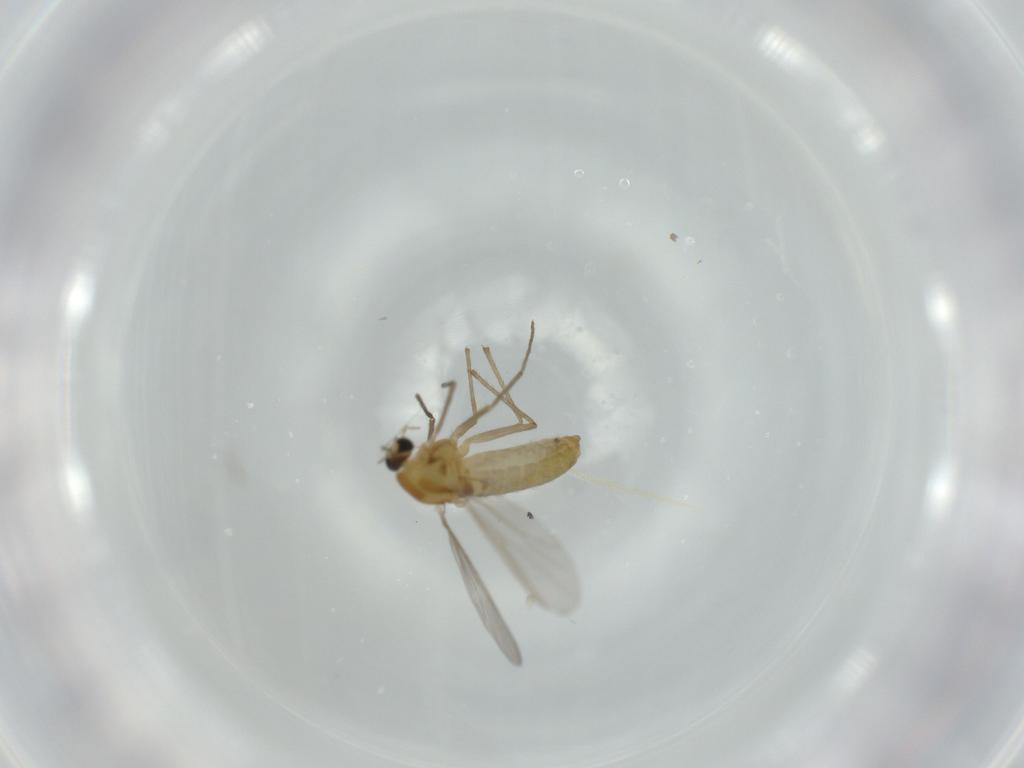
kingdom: Animalia
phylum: Arthropoda
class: Insecta
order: Diptera
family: Chironomidae
